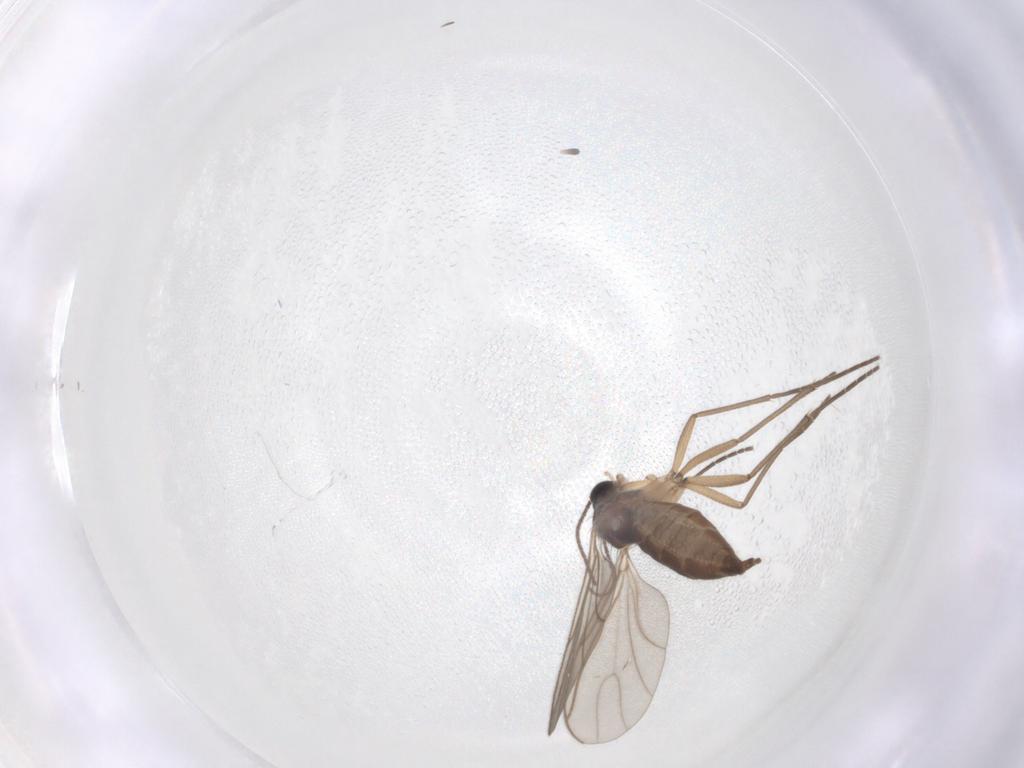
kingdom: Animalia
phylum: Arthropoda
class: Insecta
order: Diptera
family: Sciaridae
